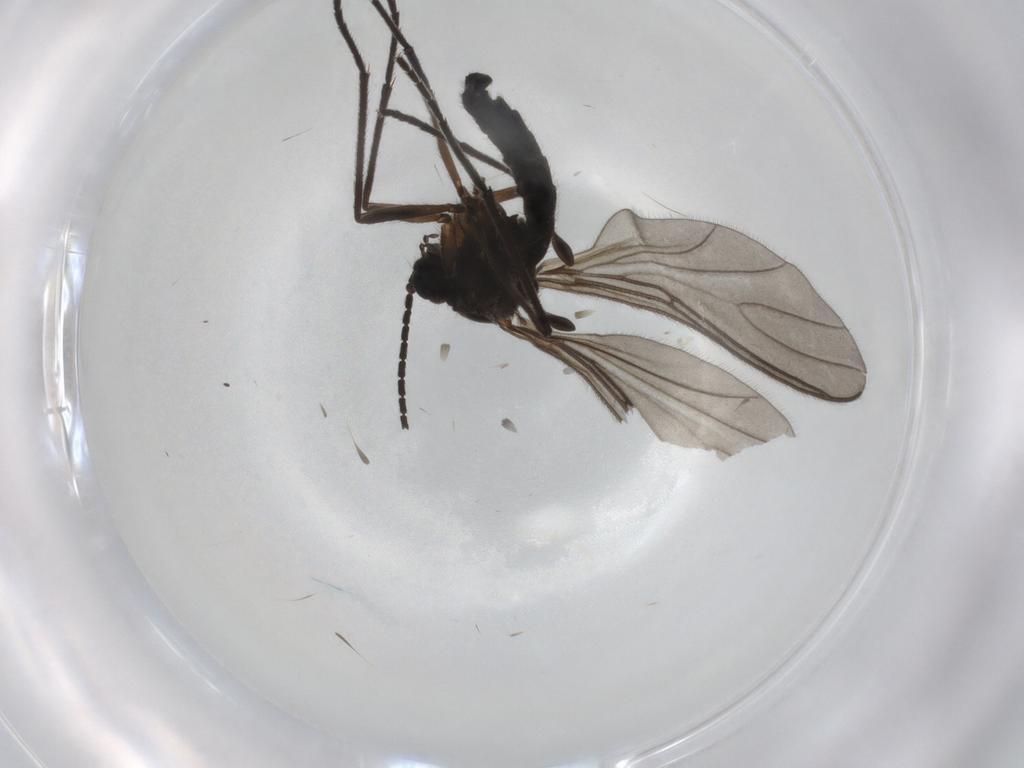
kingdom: Animalia
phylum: Arthropoda
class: Insecta
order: Diptera
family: Sciaridae
